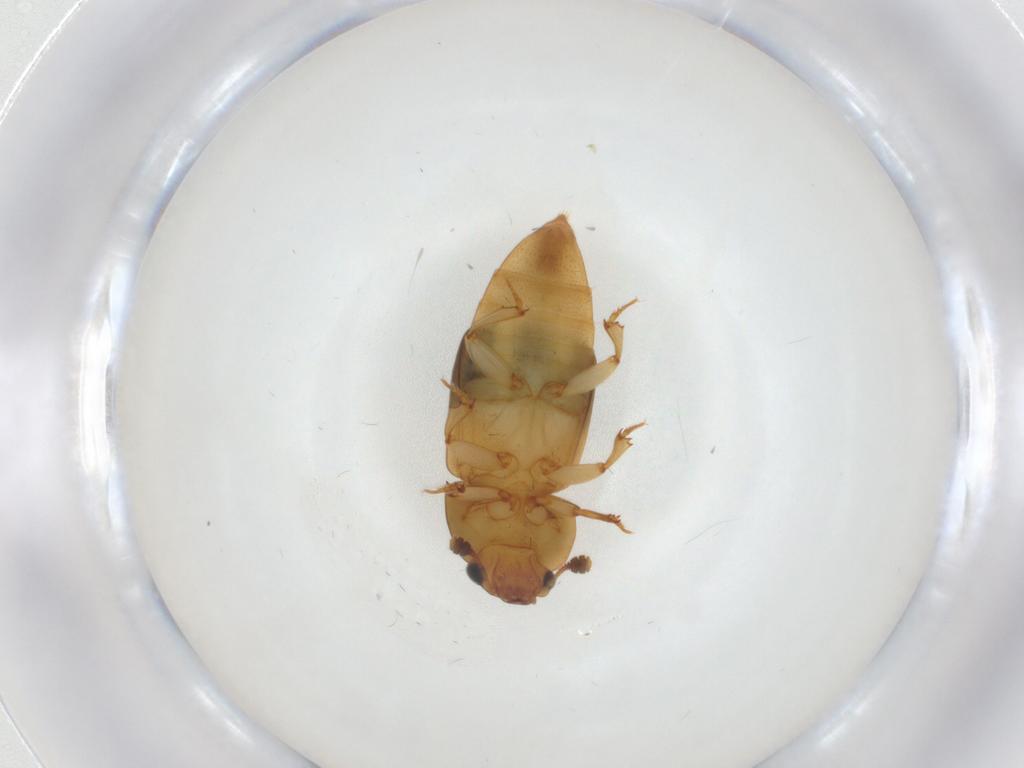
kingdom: Animalia
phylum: Arthropoda
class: Insecta
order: Coleoptera
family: Nitidulidae
